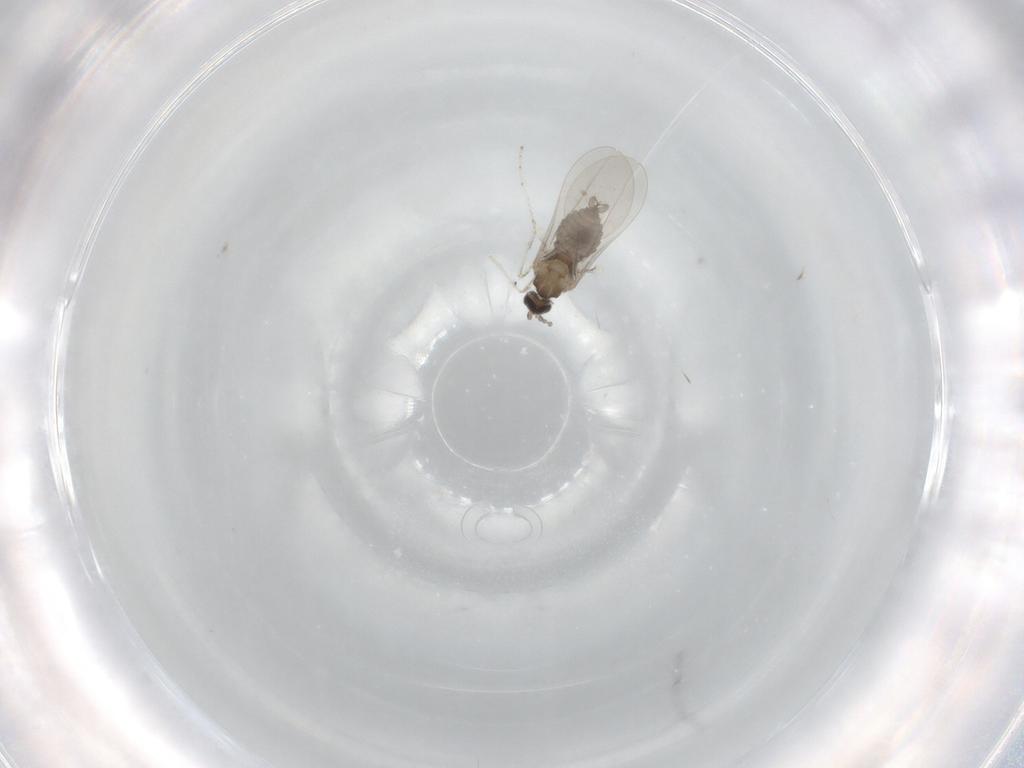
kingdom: Animalia
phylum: Arthropoda
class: Insecta
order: Diptera
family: Cecidomyiidae
